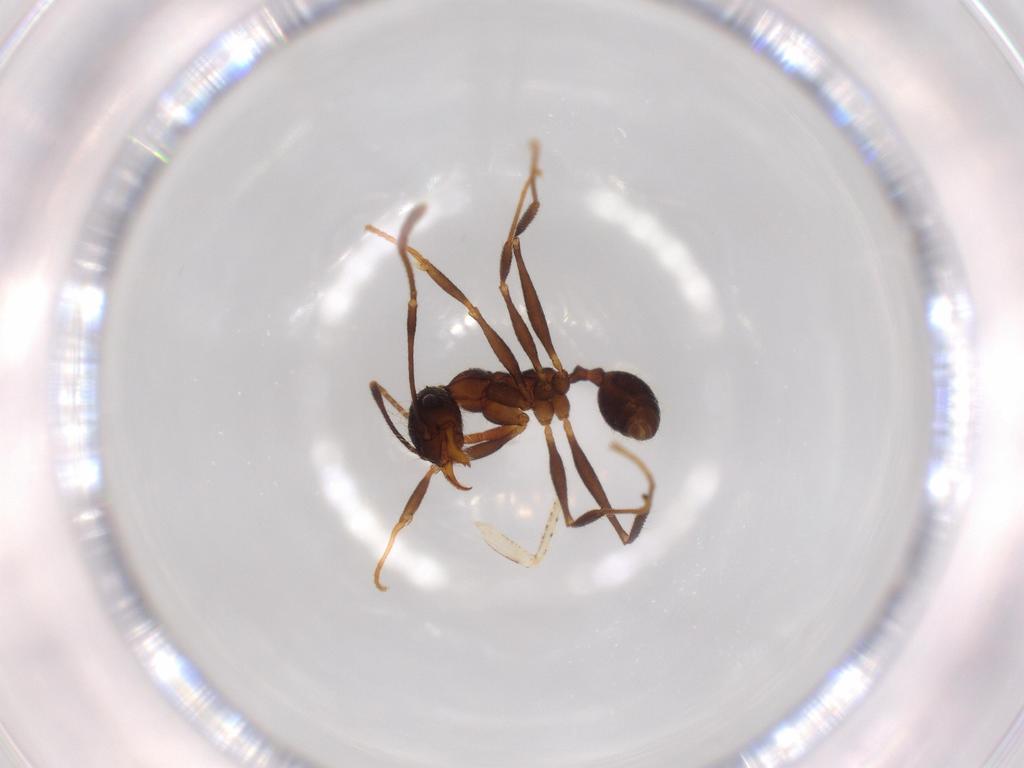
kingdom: Animalia
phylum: Arthropoda
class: Insecta
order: Hymenoptera
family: Formicidae
